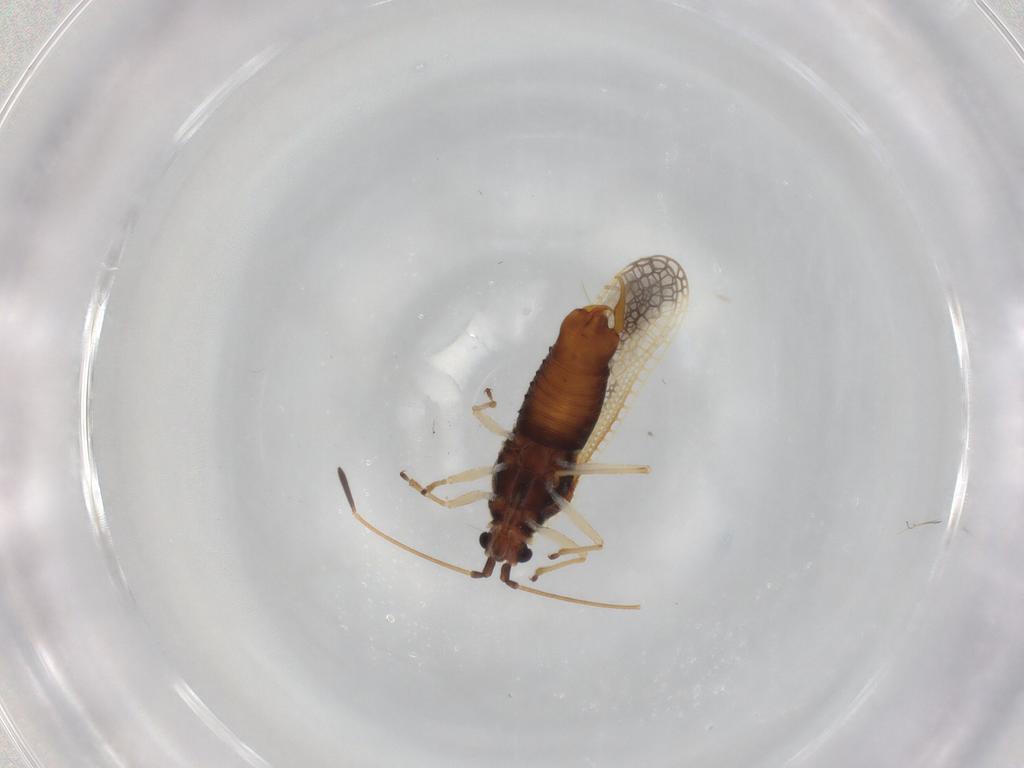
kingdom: Animalia
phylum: Arthropoda
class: Insecta
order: Hemiptera
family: Tingidae
